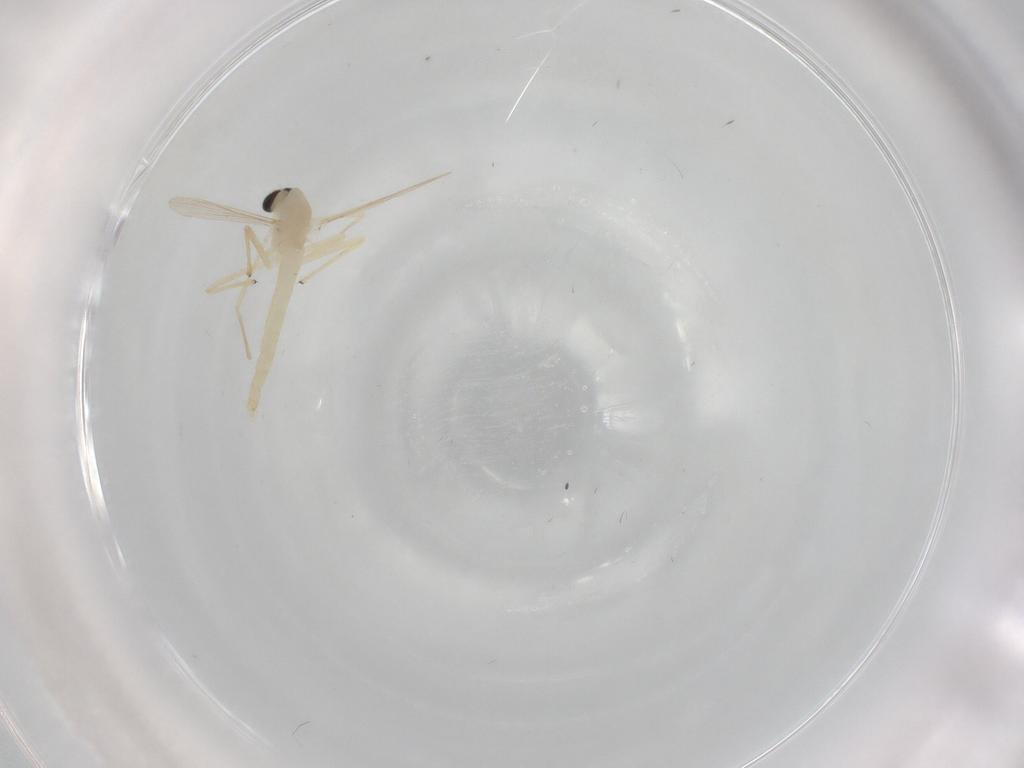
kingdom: Animalia
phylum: Arthropoda
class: Insecta
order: Diptera
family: Chironomidae
